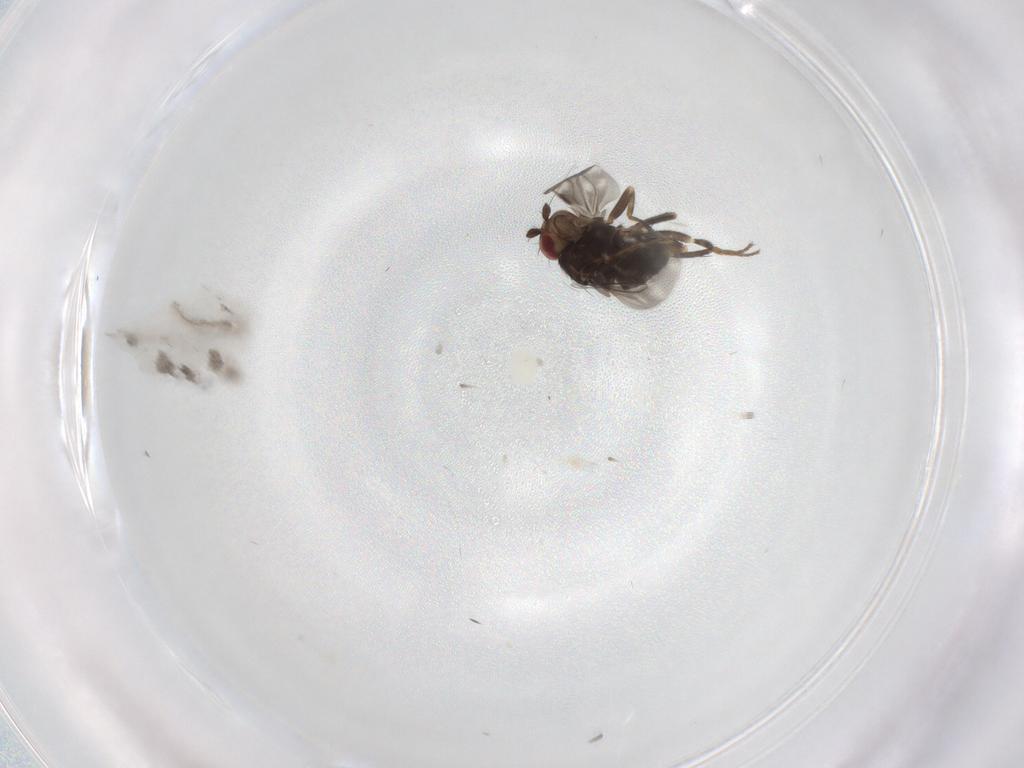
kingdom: Animalia
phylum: Arthropoda
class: Insecta
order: Diptera
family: Sphaeroceridae
